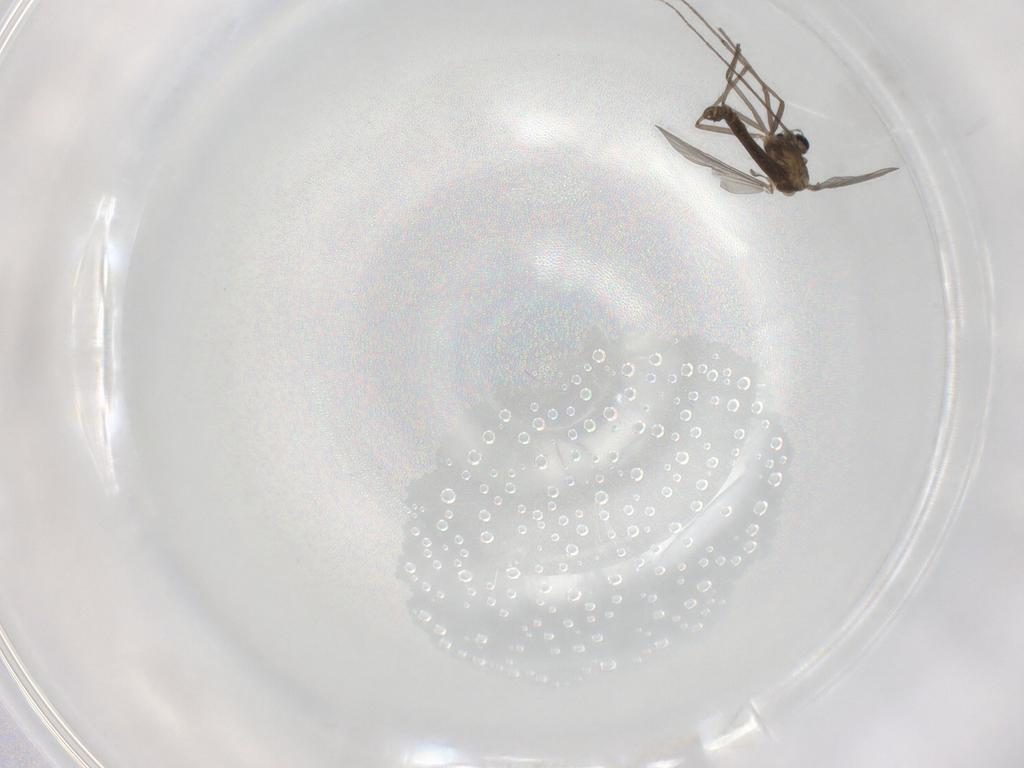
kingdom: Animalia
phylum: Arthropoda
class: Insecta
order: Diptera
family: Chironomidae
